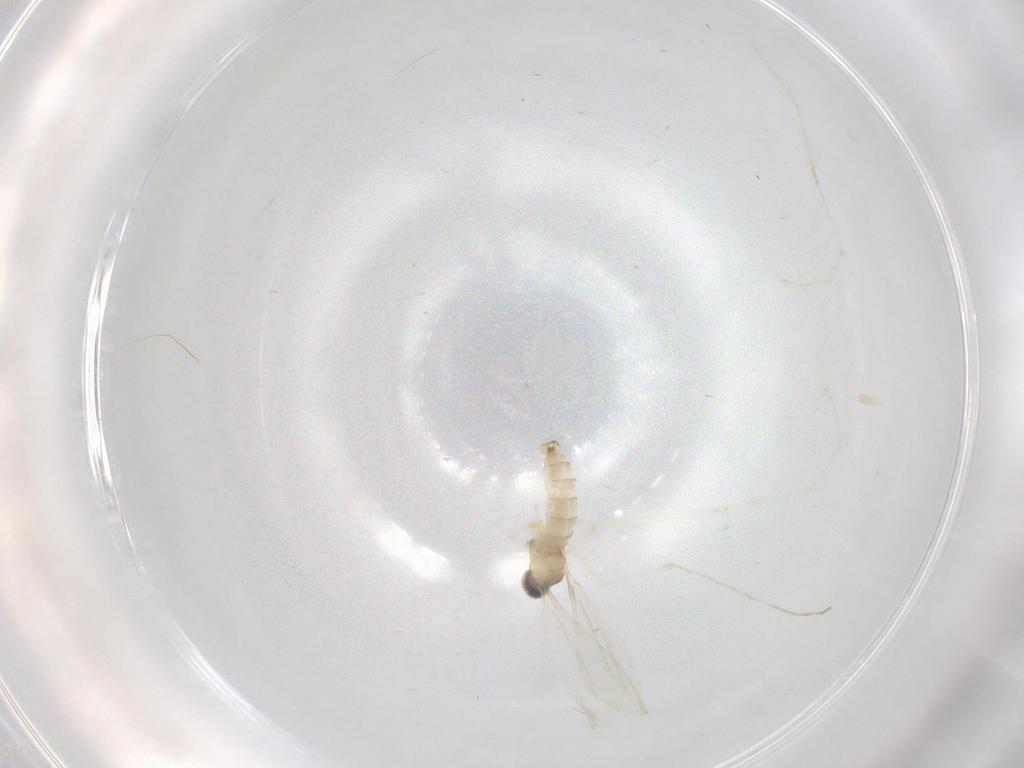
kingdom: Animalia
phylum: Arthropoda
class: Insecta
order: Diptera
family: Cecidomyiidae
